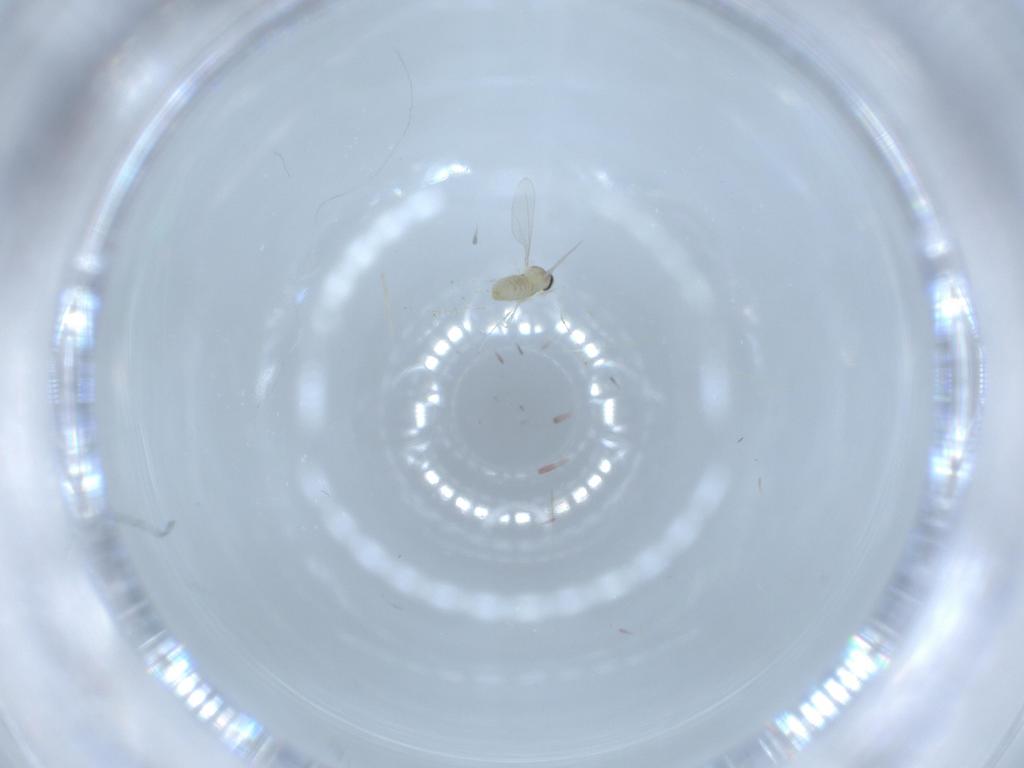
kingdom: Animalia
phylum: Arthropoda
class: Insecta
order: Diptera
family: Cecidomyiidae
